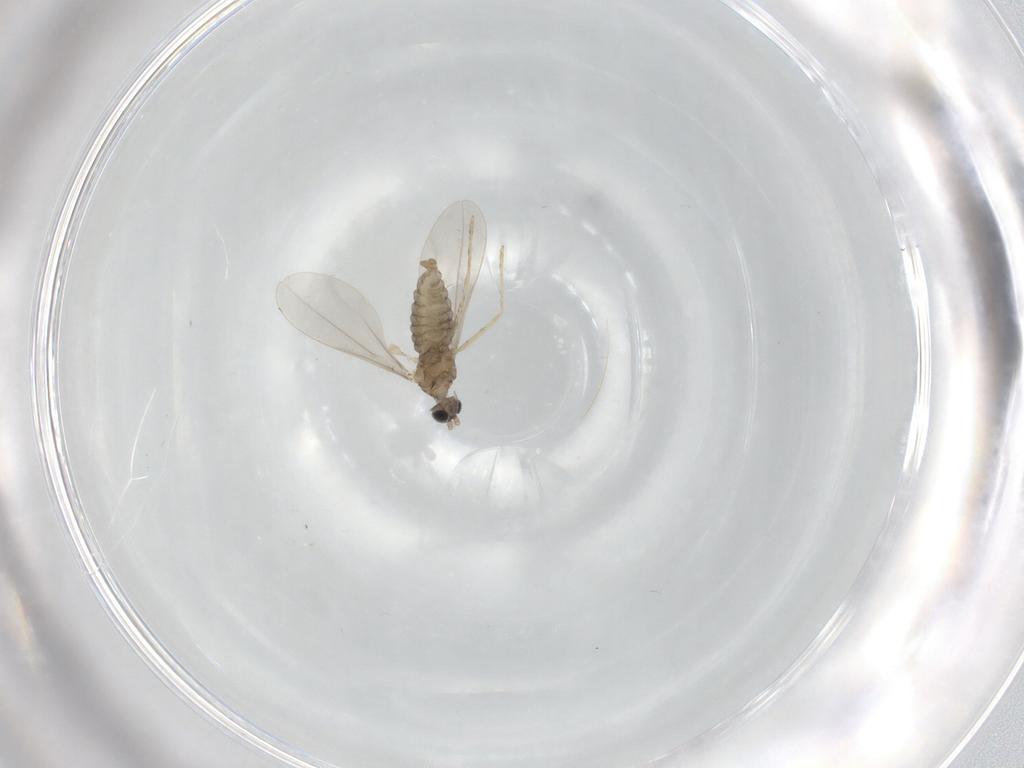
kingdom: Animalia
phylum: Arthropoda
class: Insecta
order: Diptera
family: Cecidomyiidae
